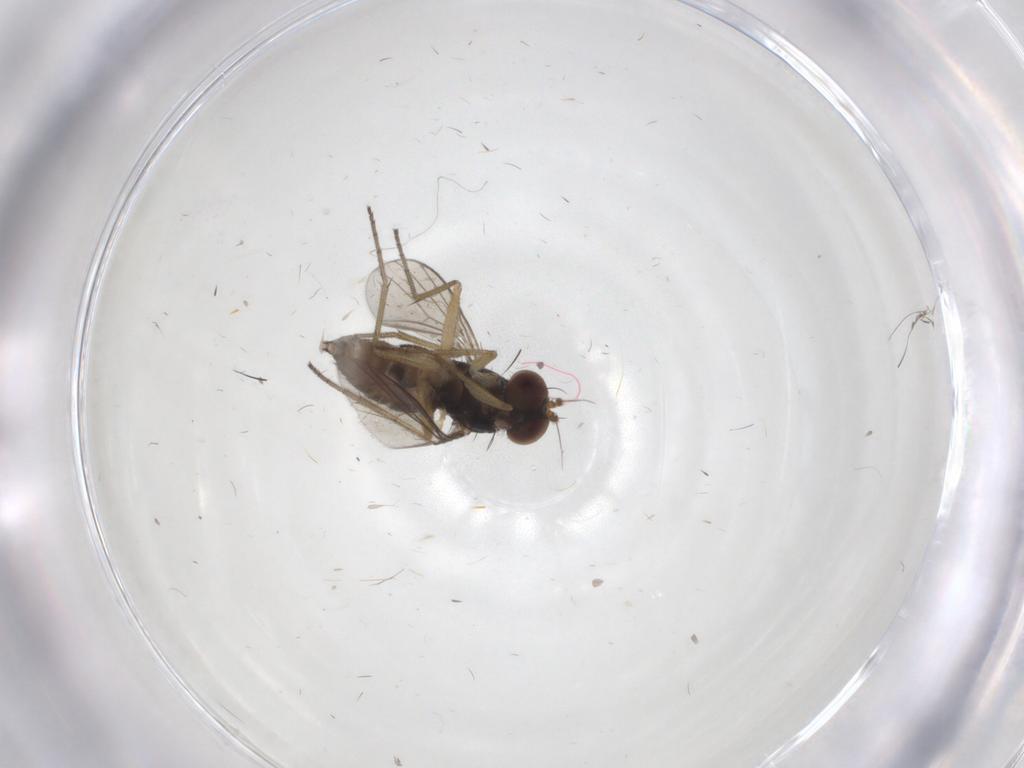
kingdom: Animalia
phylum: Arthropoda
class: Insecta
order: Diptera
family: Dolichopodidae
